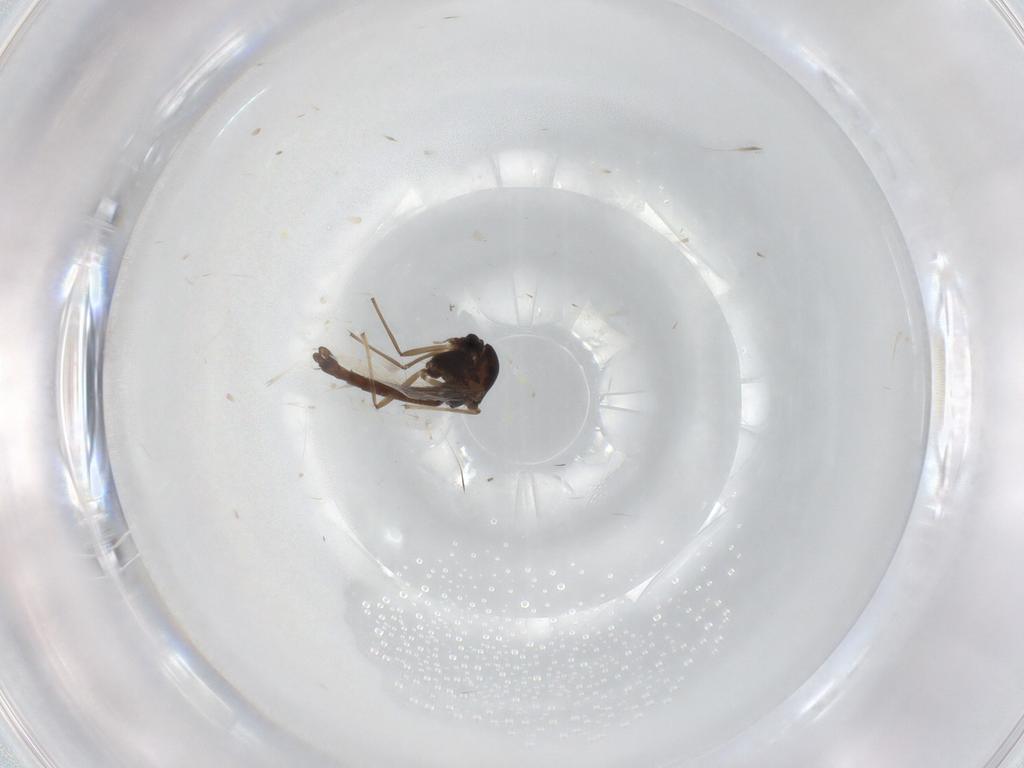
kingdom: Animalia
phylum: Arthropoda
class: Insecta
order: Diptera
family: Chironomidae
